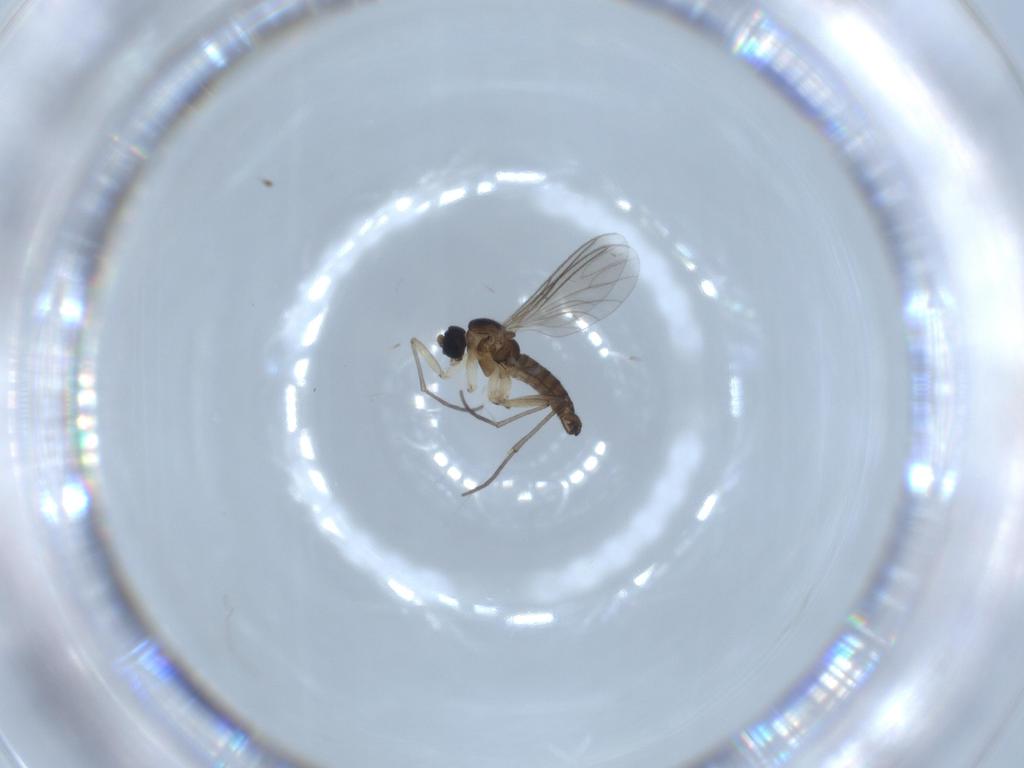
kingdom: Animalia
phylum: Arthropoda
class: Insecta
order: Diptera
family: Sciaridae
